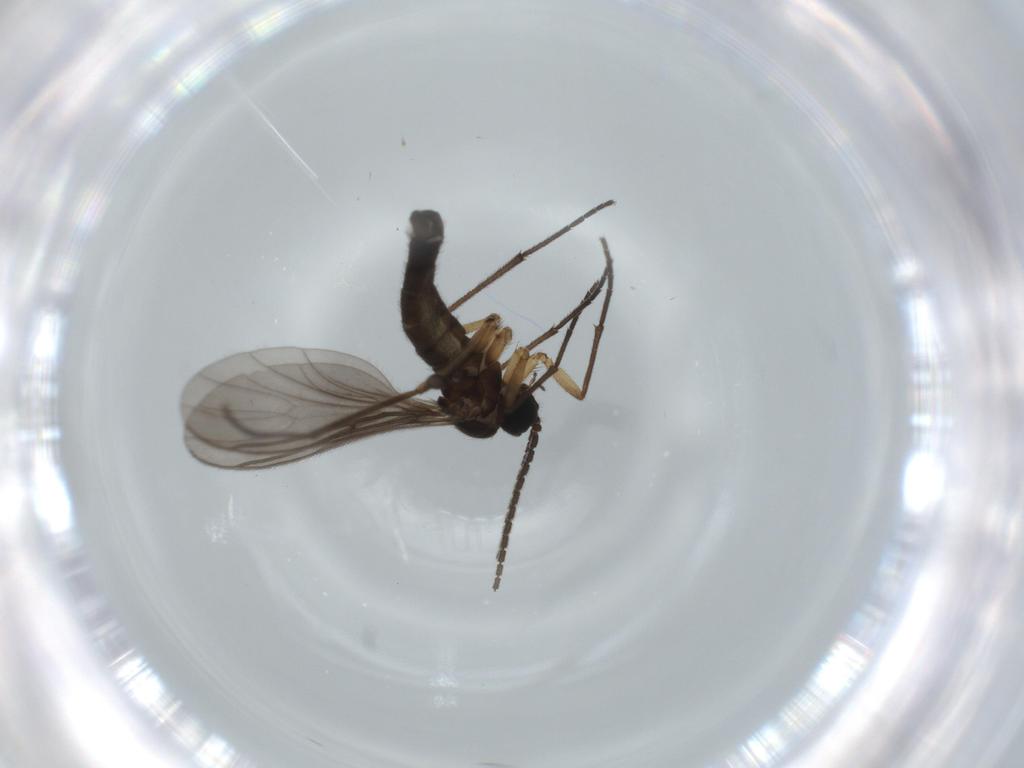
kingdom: Animalia
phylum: Arthropoda
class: Insecta
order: Diptera
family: Sciaridae
